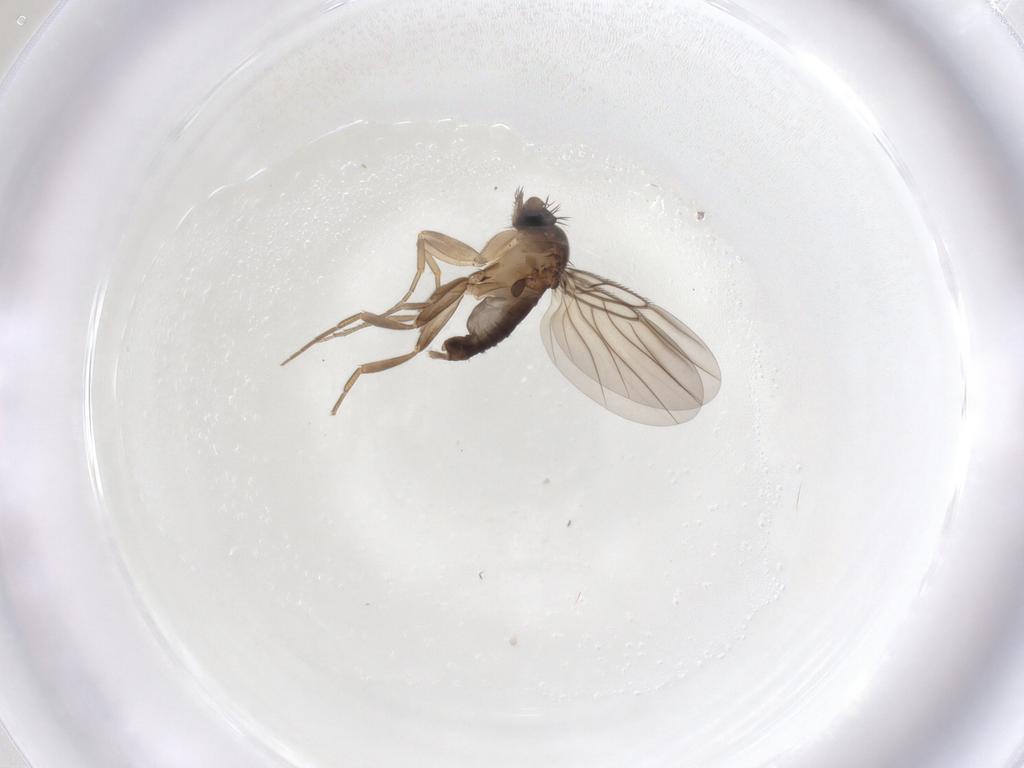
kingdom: Animalia
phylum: Arthropoda
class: Insecta
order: Diptera
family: Phoridae
